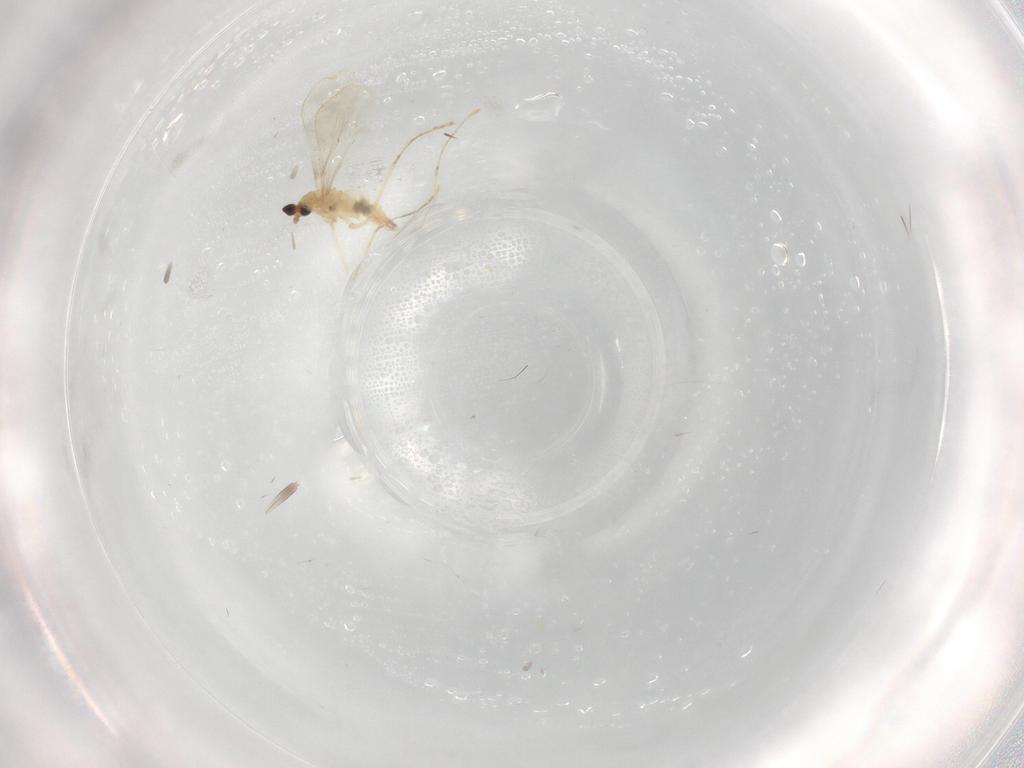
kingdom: Animalia
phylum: Arthropoda
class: Insecta
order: Diptera
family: Cecidomyiidae
